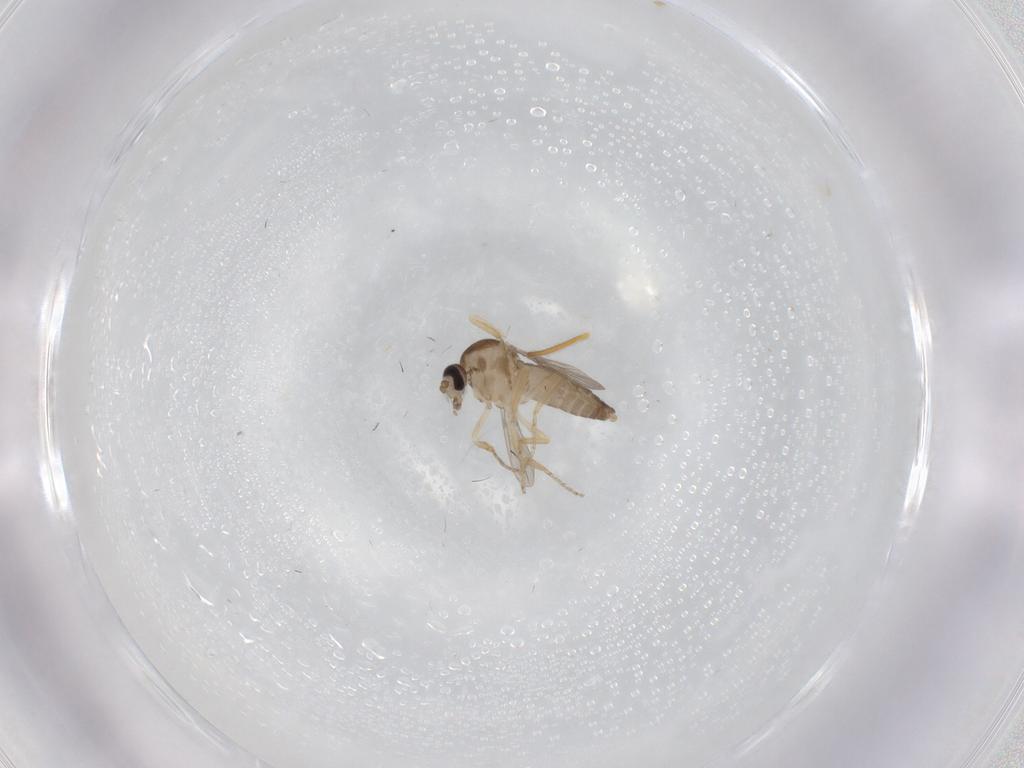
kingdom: Animalia
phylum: Arthropoda
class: Insecta
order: Diptera
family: Ceratopogonidae
